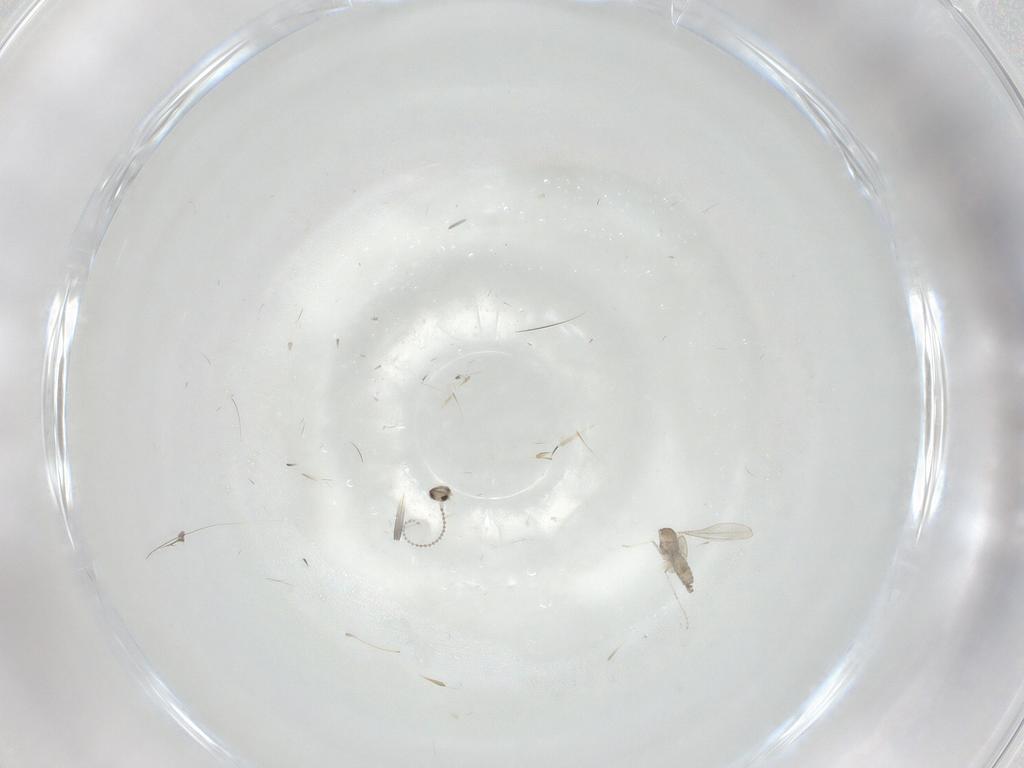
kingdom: Animalia
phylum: Arthropoda
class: Insecta
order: Diptera
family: Cecidomyiidae
